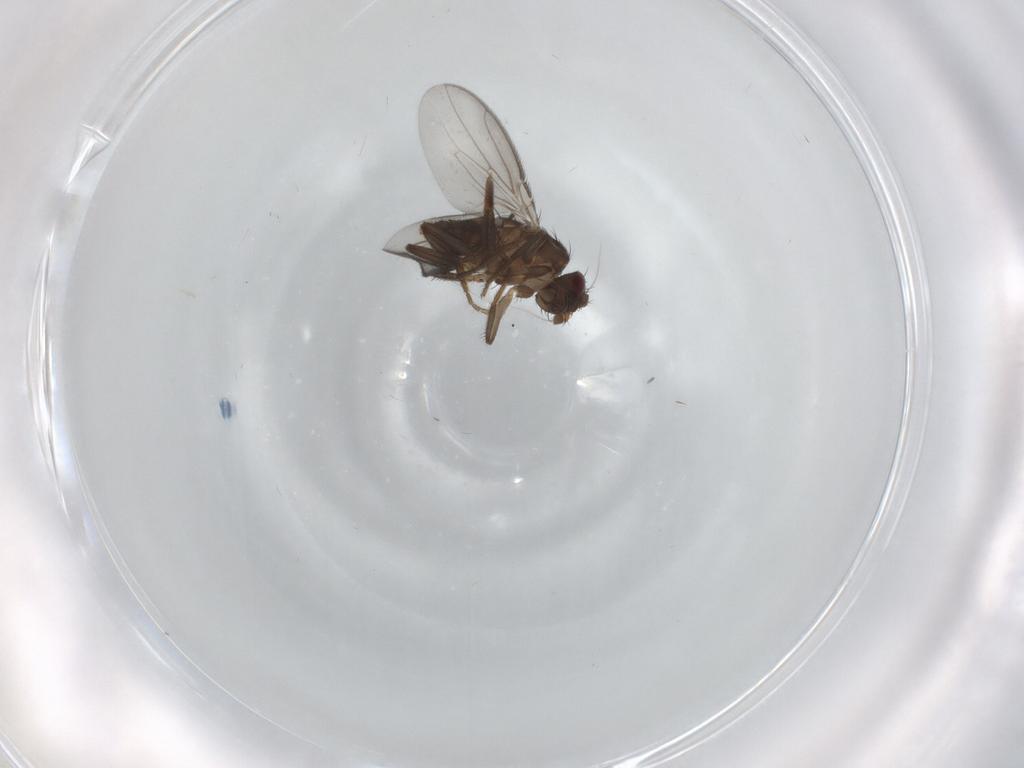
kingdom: Animalia
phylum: Arthropoda
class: Insecta
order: Diptera
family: Chironomidae
